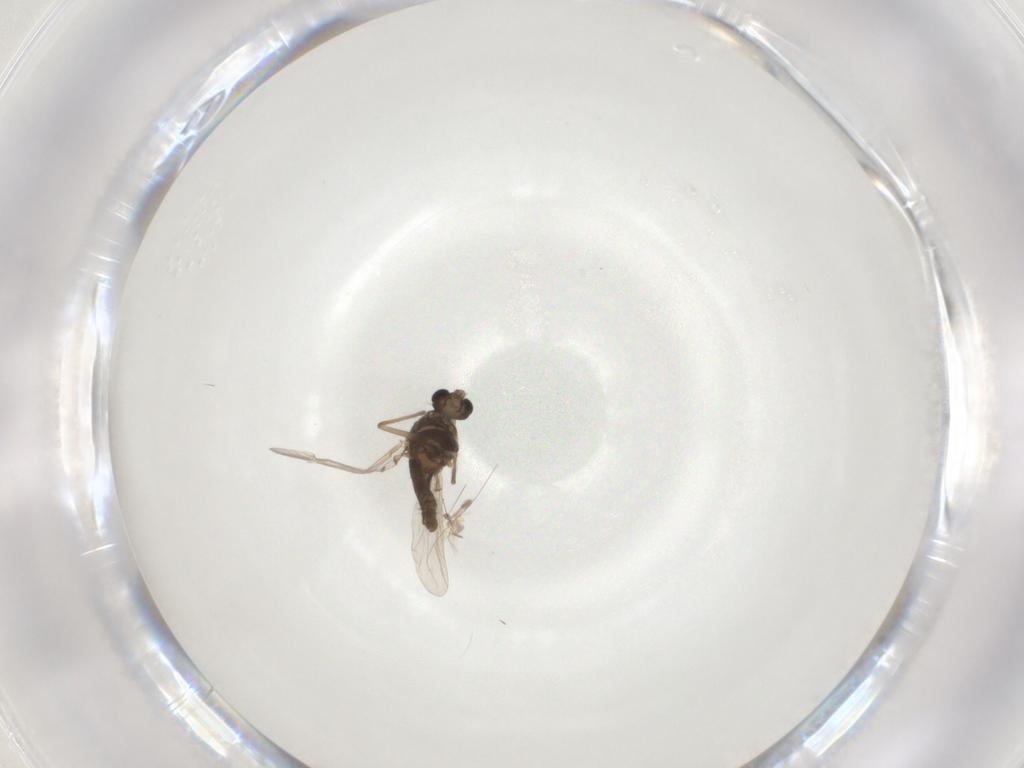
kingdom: Animalia
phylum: Arthropoda
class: Insecta
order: Diptera
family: Chironomidae
